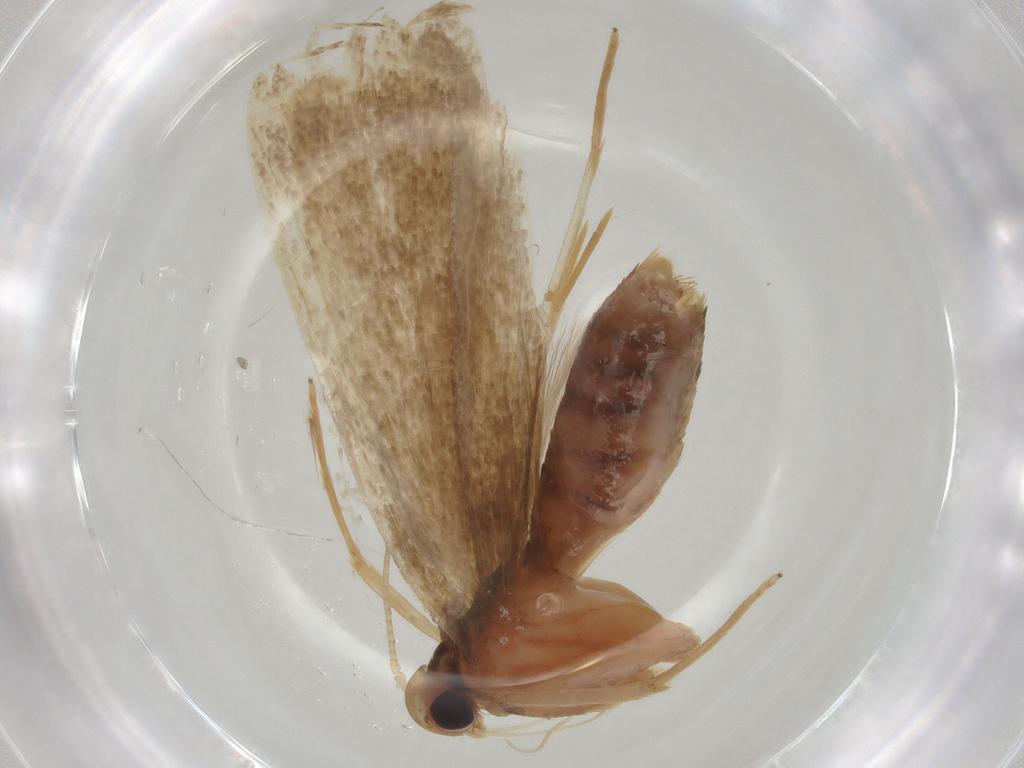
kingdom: Animalia
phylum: Arthropoda
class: Insecta
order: Lepidoptera
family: Lecithoceridae
